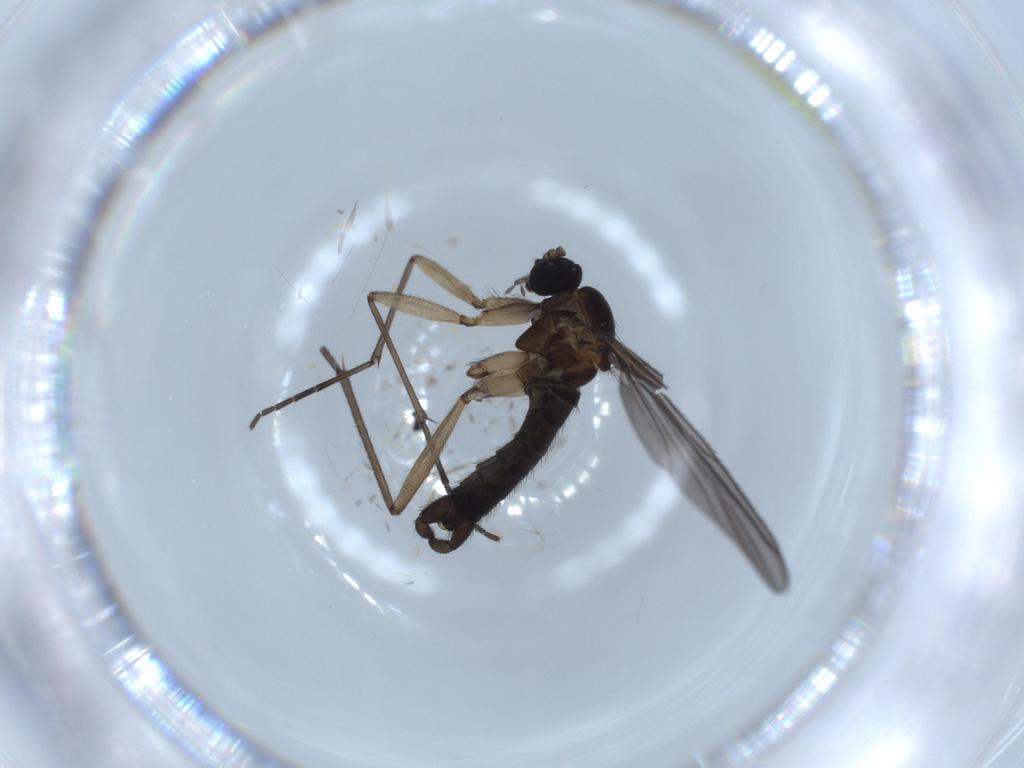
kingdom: Animalia
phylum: Arthropoda
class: Insecta
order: Diptera
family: Sciaridae
